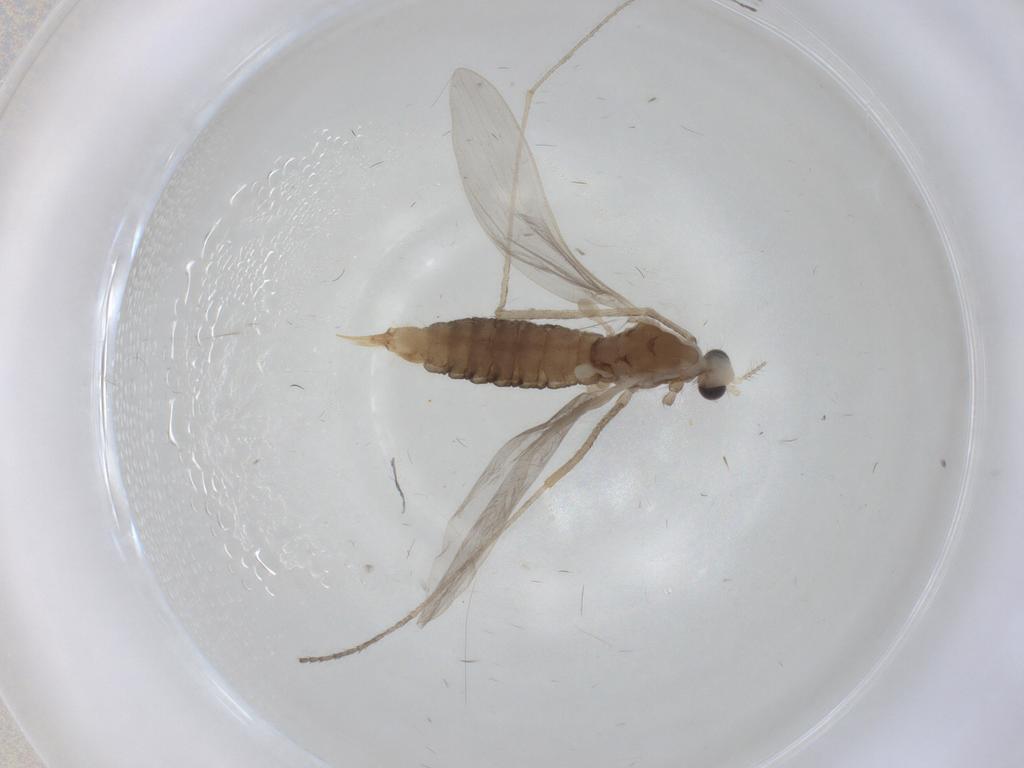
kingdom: Animalia
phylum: Arthropoda
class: Insecta
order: Diptera
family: Limoniidae
